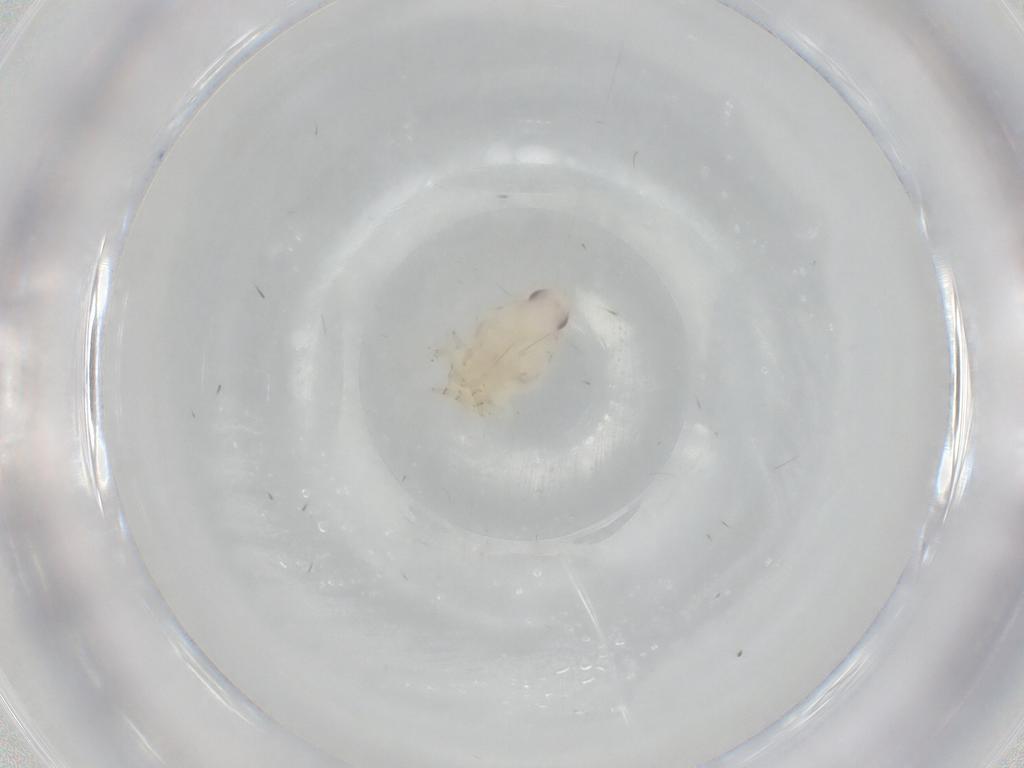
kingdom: Animalia
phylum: Arthropoda
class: Insecta
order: Hemiptera
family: Flatidae
